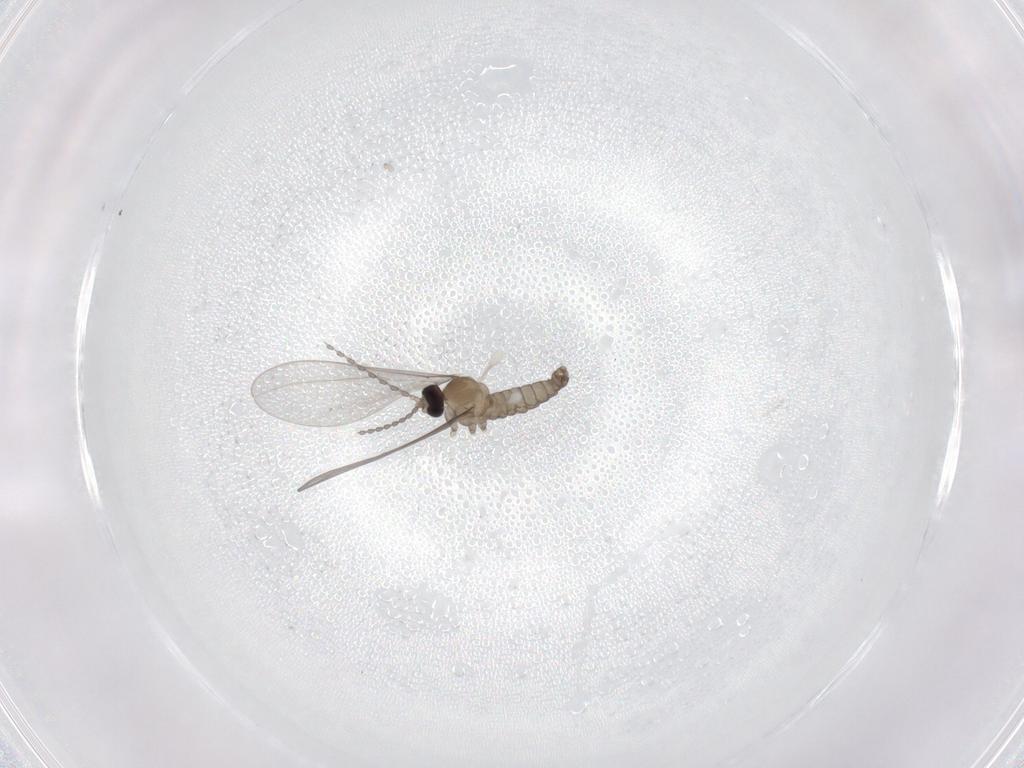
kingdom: Animalia
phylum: Arthropoda
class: Insecta
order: Diptera
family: Cecidomyiidae
